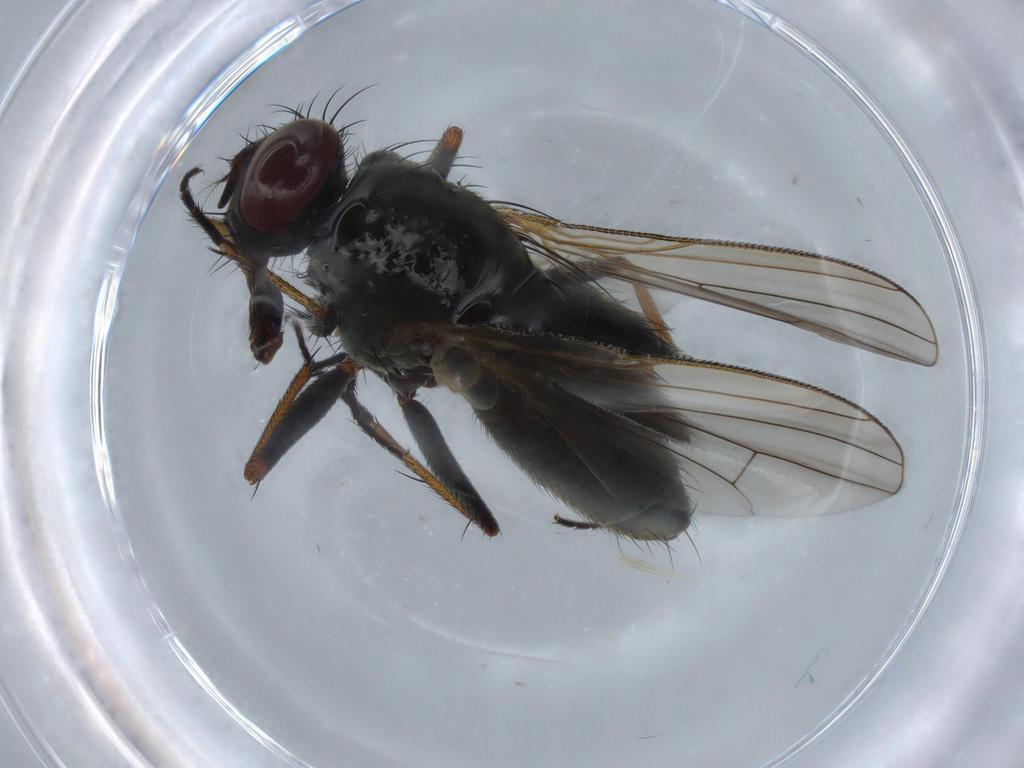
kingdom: Animalia
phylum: Arthropoda
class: Insecta
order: Diptera
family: Muscidae
